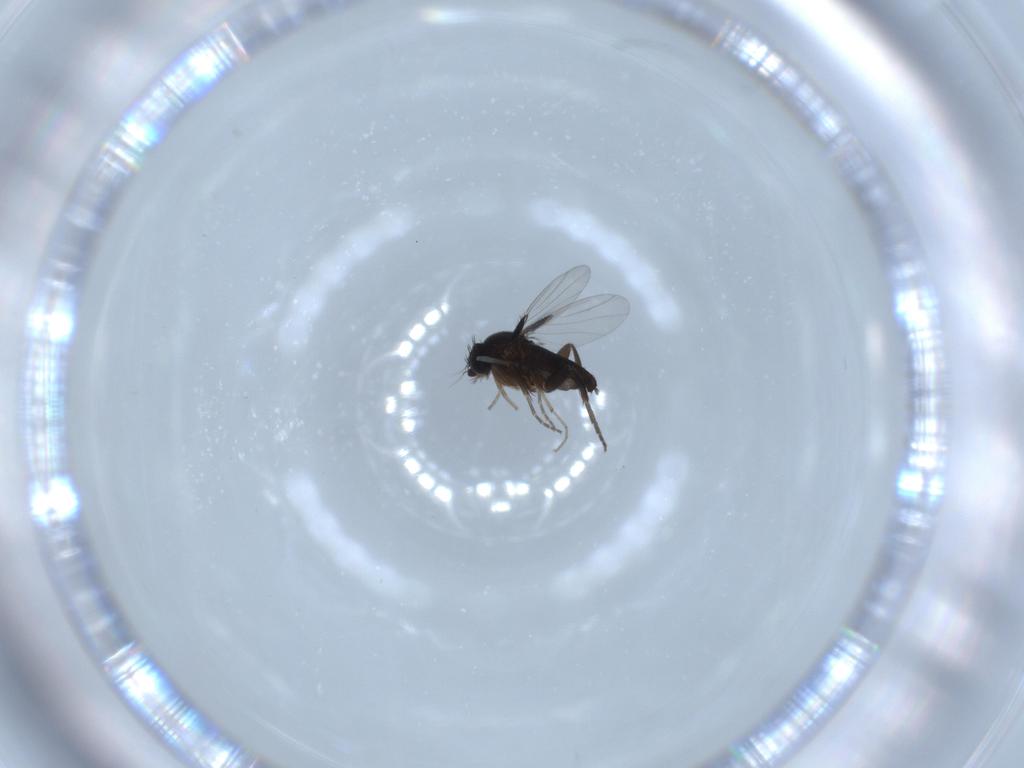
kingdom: Animalia
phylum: Arthropoda
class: Insecta
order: Diptera
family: Phoridae
